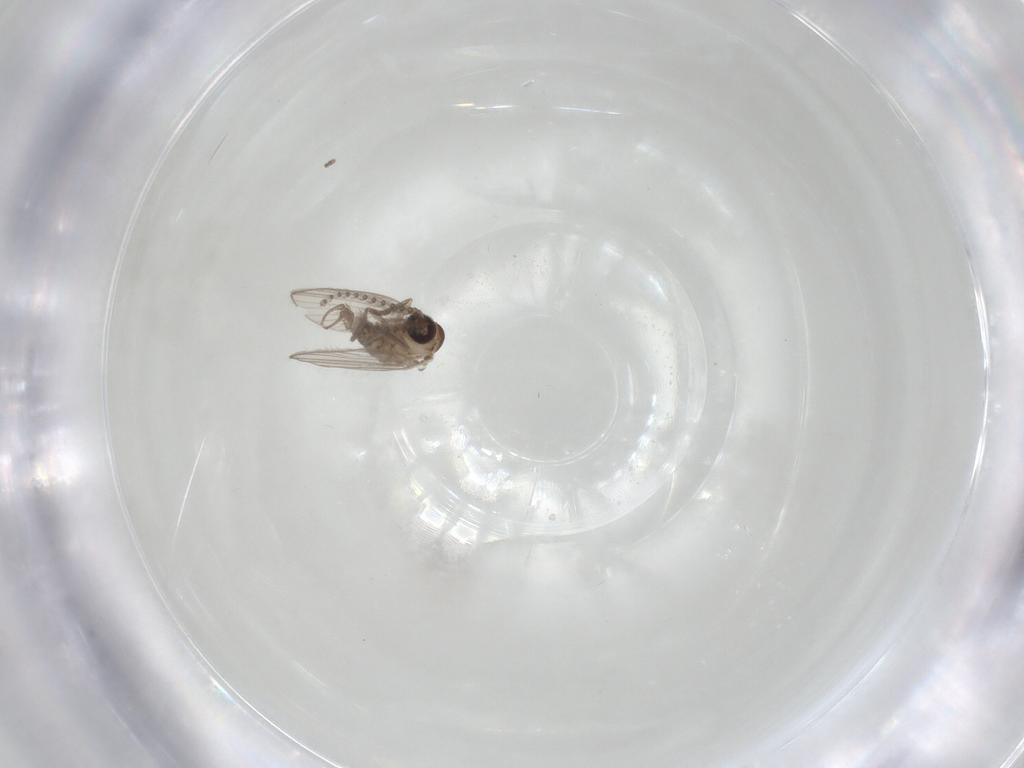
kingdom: Animalia
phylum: Arthropoda
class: Insecta
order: Diptera
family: Psychodidae
